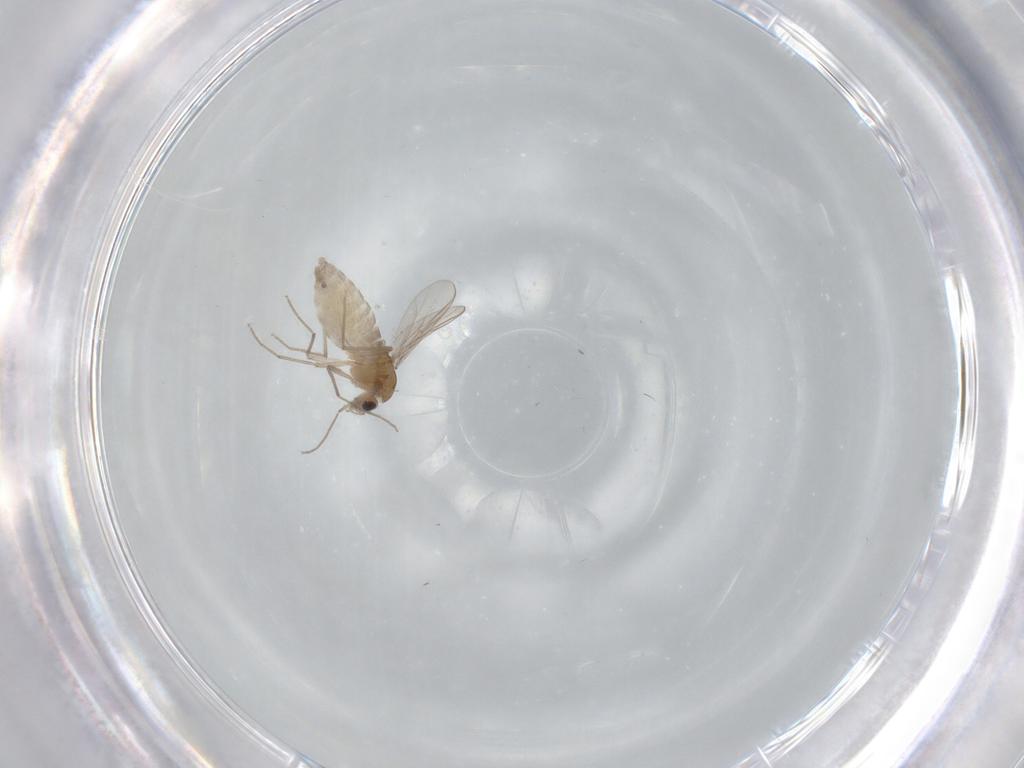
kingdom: Animalia
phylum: Arthropoda
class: Insecta
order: Diptera
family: Chironomidae
